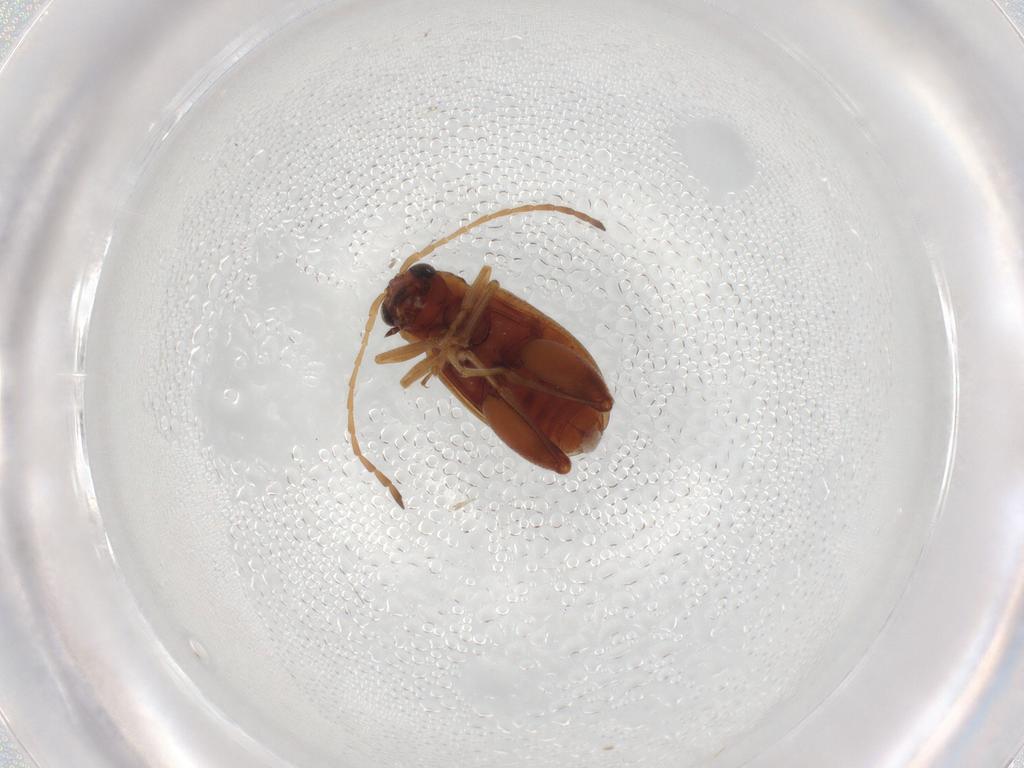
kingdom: Animalia
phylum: Arthropoda
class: Insecta
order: Coleoptera
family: Chrysomelidae
